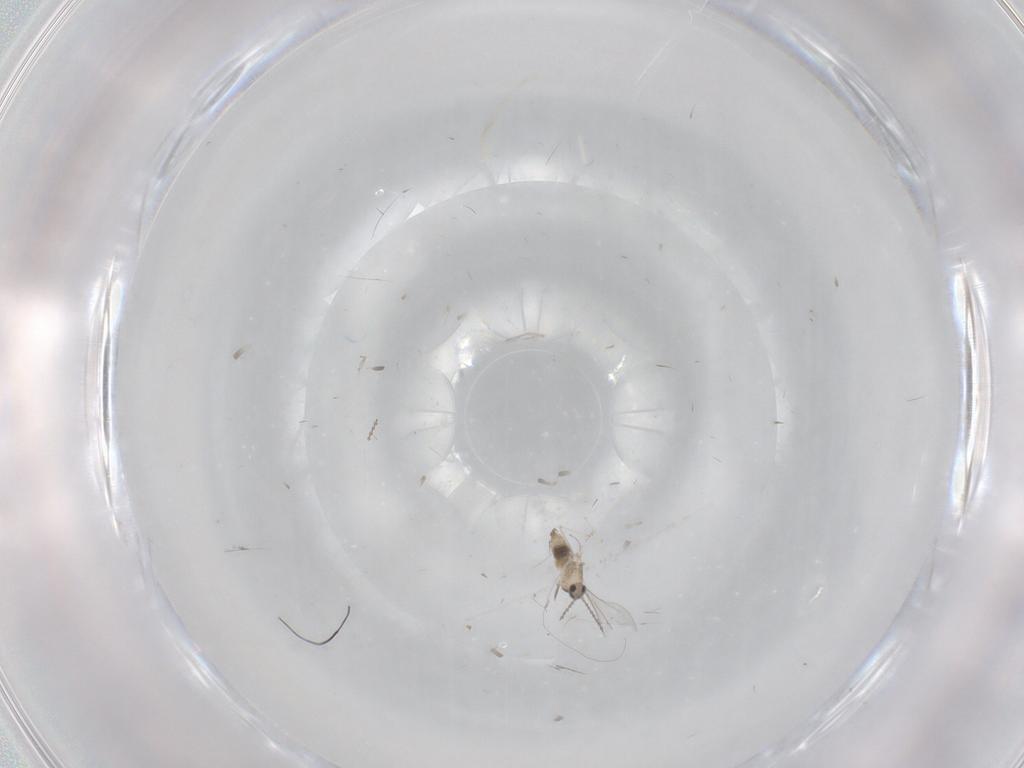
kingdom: Animalia
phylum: Arthropoda
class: Insecta
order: Diptera
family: Cecidomyiidae
